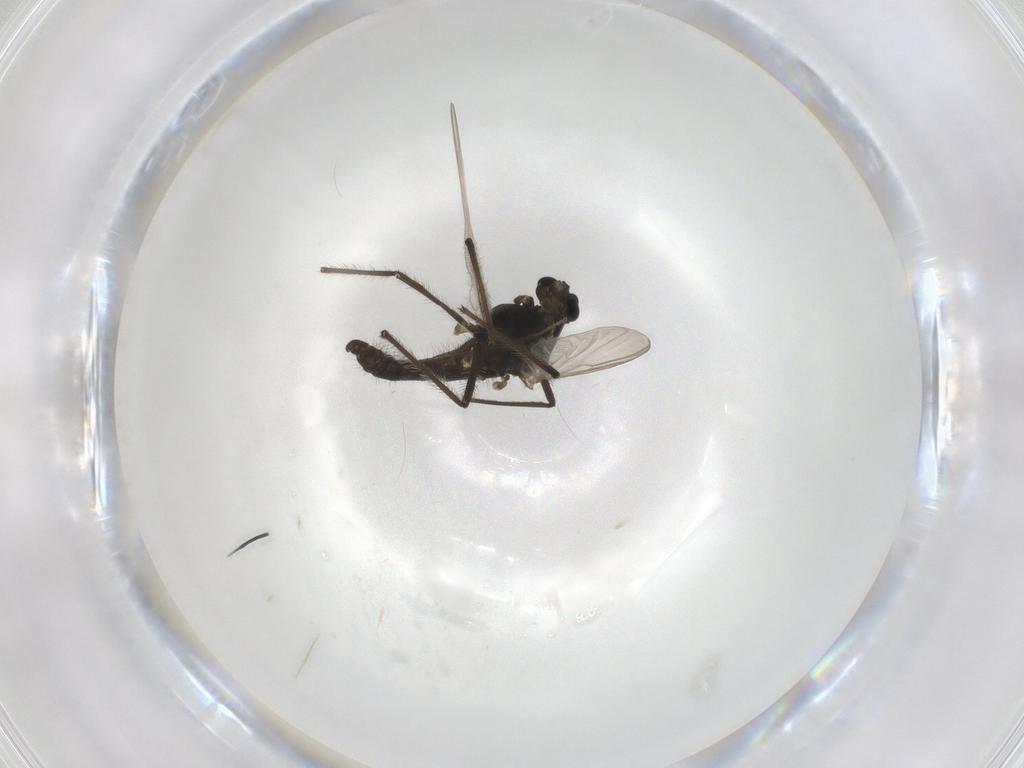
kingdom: Animalia
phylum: Arthropoda
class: Insecta
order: Diptera
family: Chironomidae
